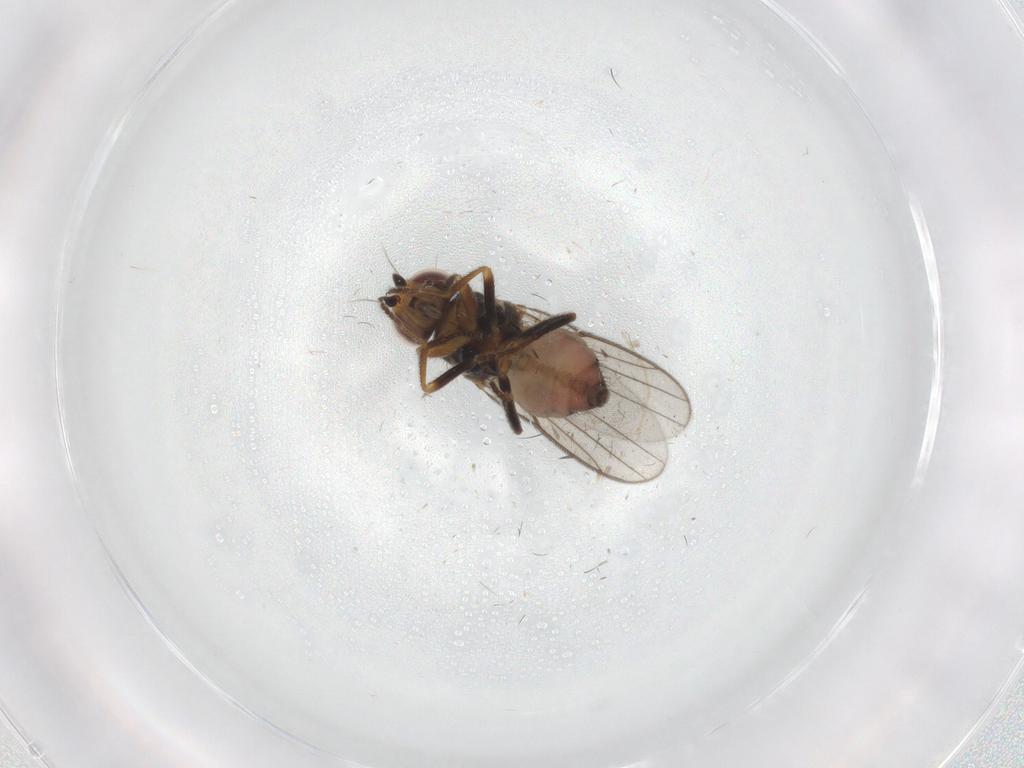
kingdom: Animalia
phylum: Arthropoda
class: Insecta
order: Diptera
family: Chloropidae
